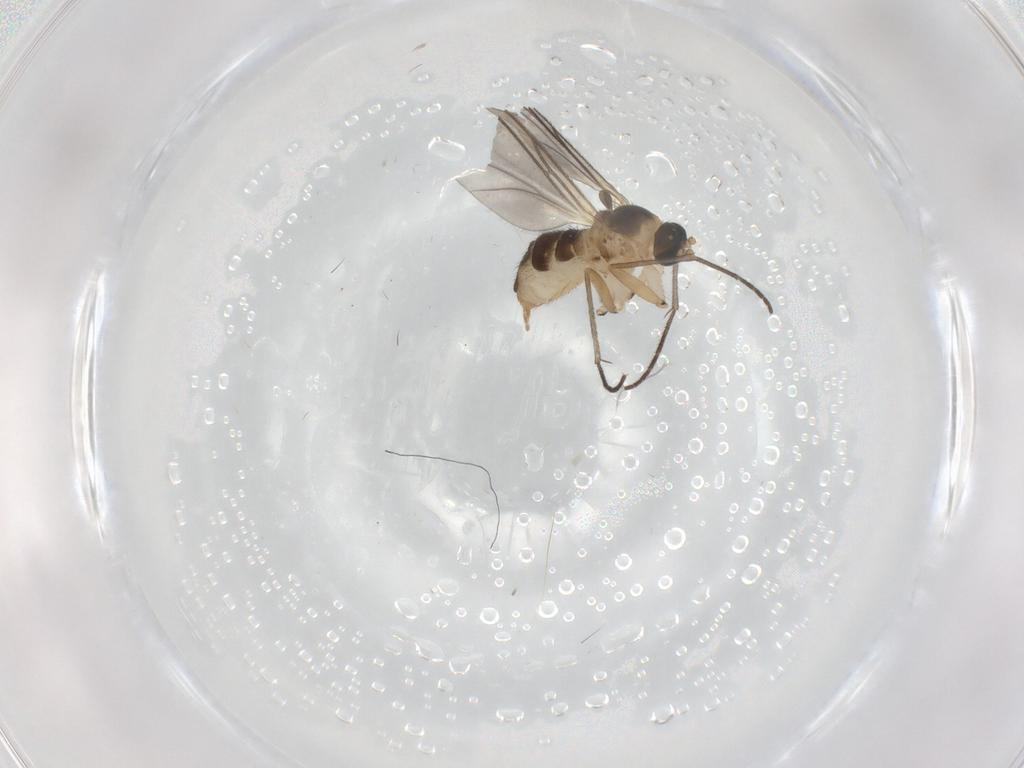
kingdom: Animalia
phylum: Arthropoda
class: Insecta
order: Diptera
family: Sciaridae
